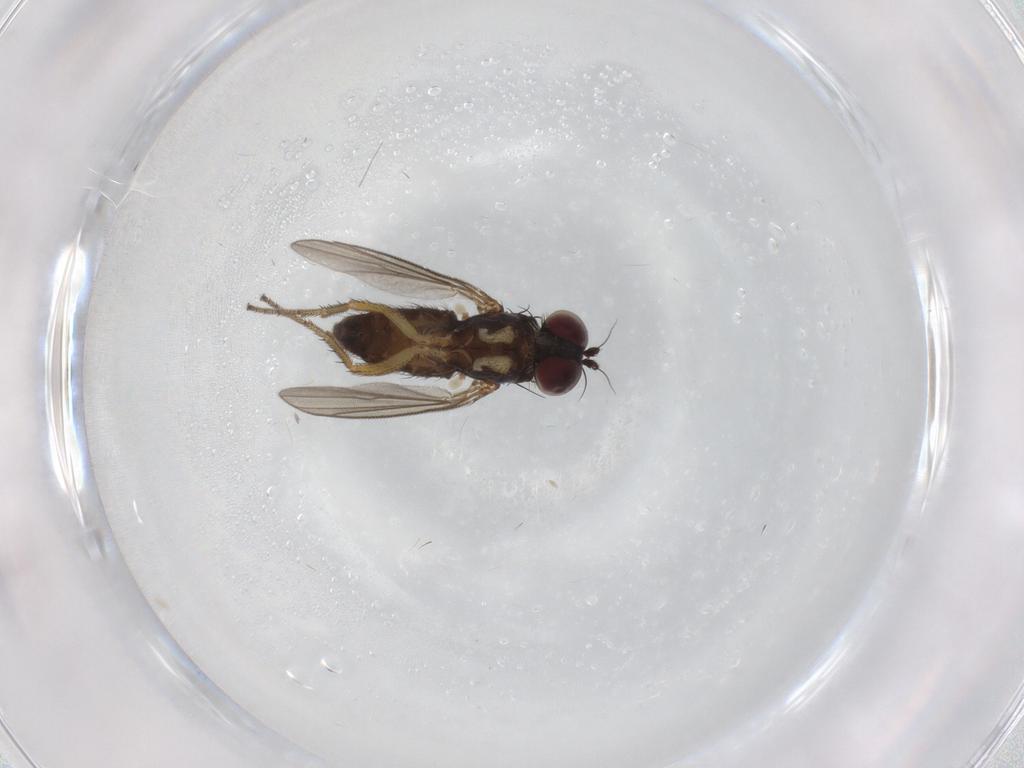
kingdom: Animalia
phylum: Arthropoda
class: Insecta
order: Diptera
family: Dolichopodidae
